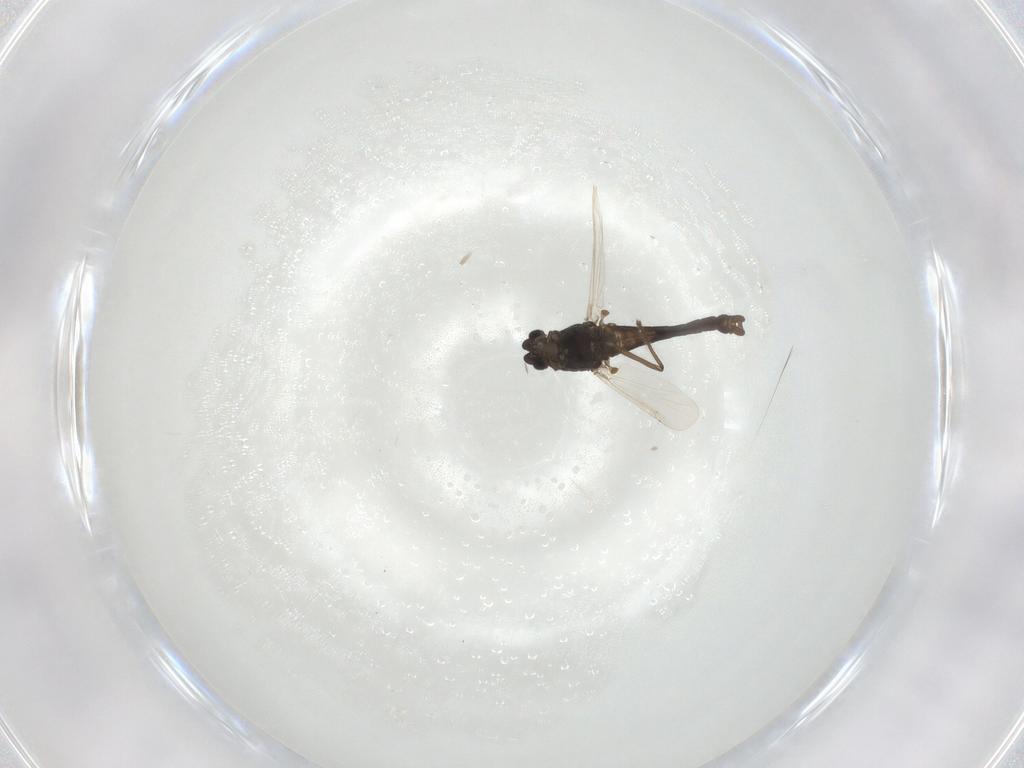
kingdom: Animalia
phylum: Arthropoda
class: Insecta
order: Diptera
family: Chironomidae
